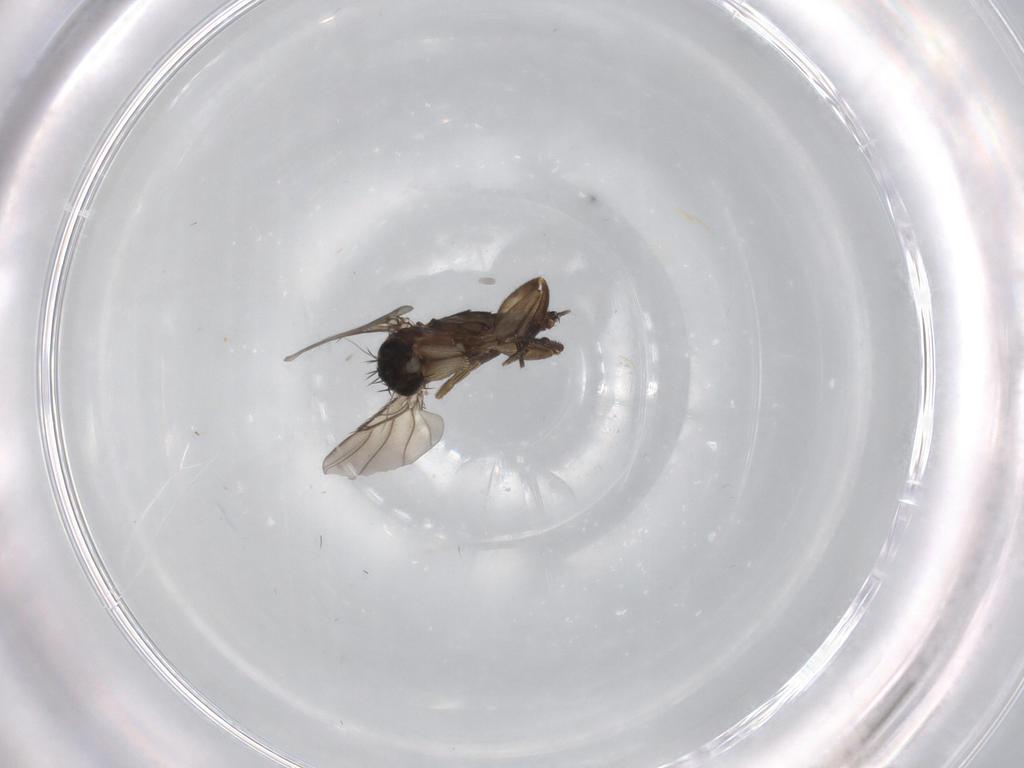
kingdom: Animalia
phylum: Arthropoda
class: Insecta
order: Diptera
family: Phoridae
